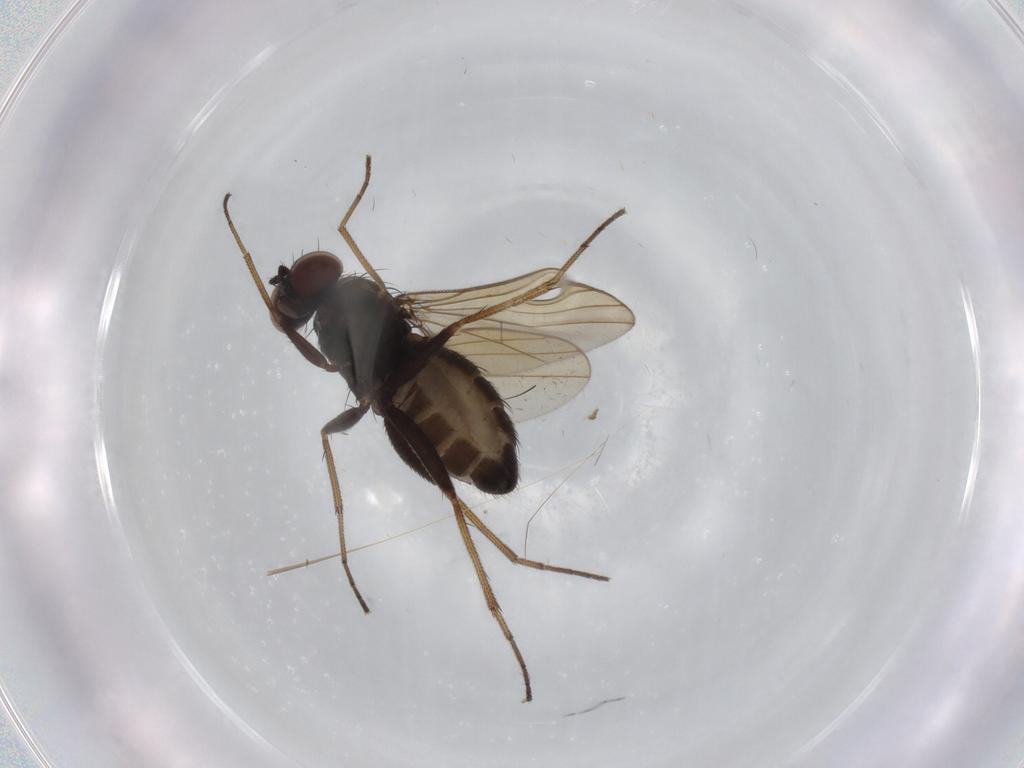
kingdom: Animalia
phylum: Arthropoda
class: Insecta
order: Diptera
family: Dolichopodidae
